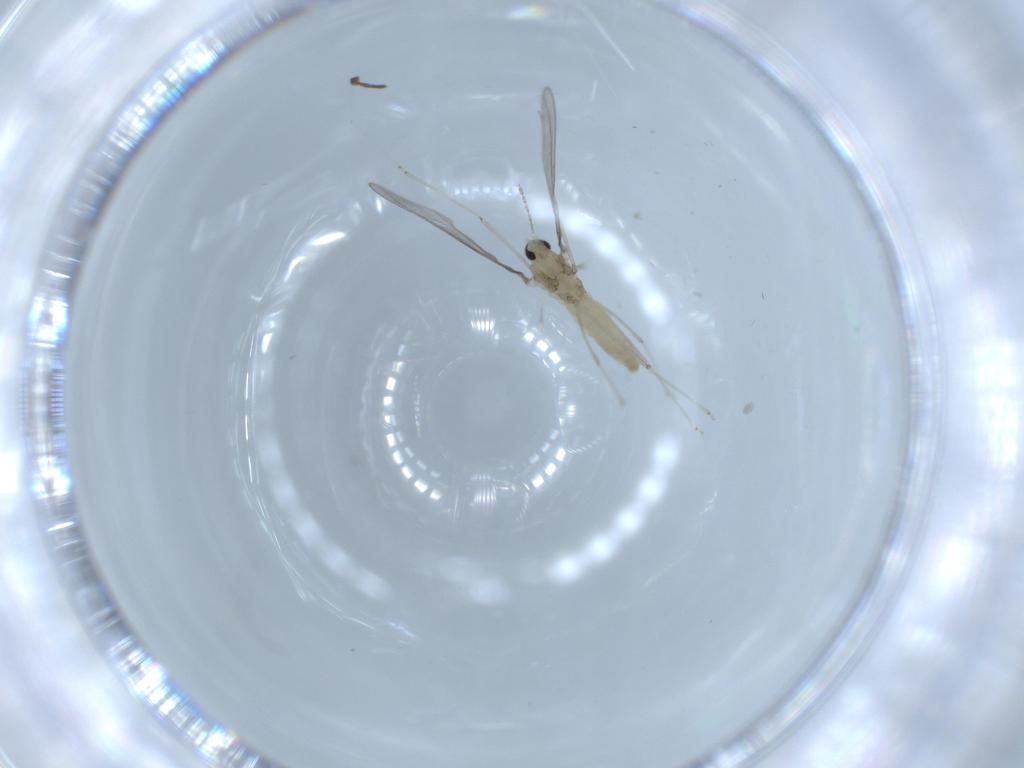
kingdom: Animalia
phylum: Arthropoda
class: Insecta
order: Diptera
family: Cecidomyiidae
